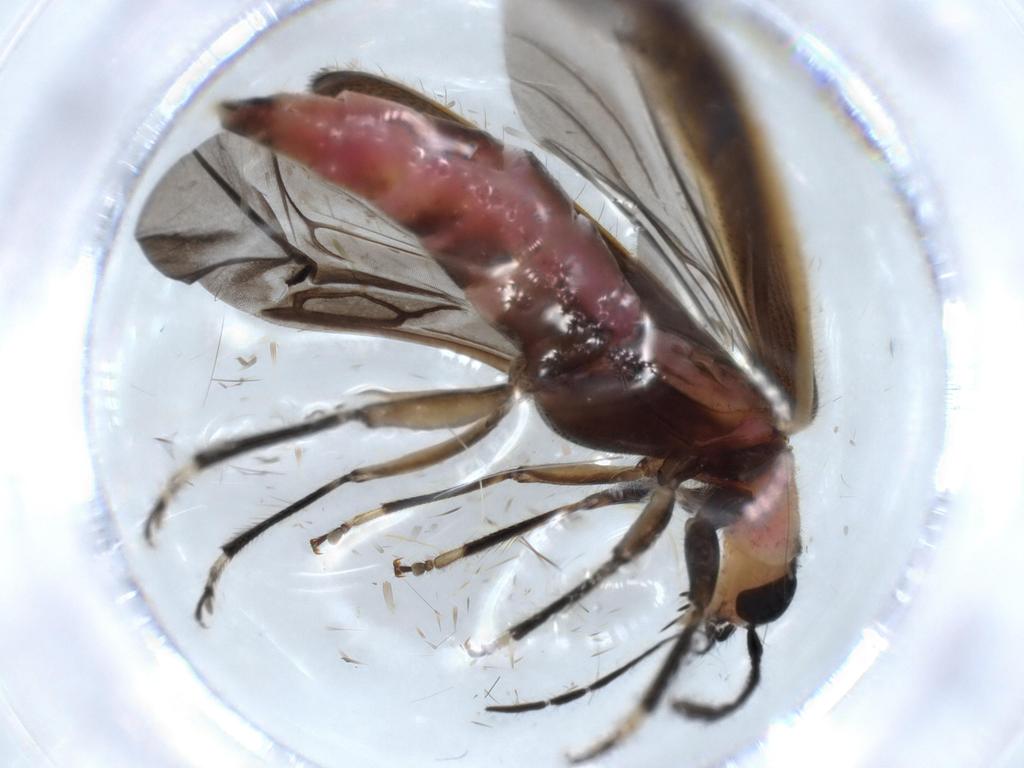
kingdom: Animalia
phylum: Arthropoda
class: Insecta
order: Coleoptera
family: Cleridae
